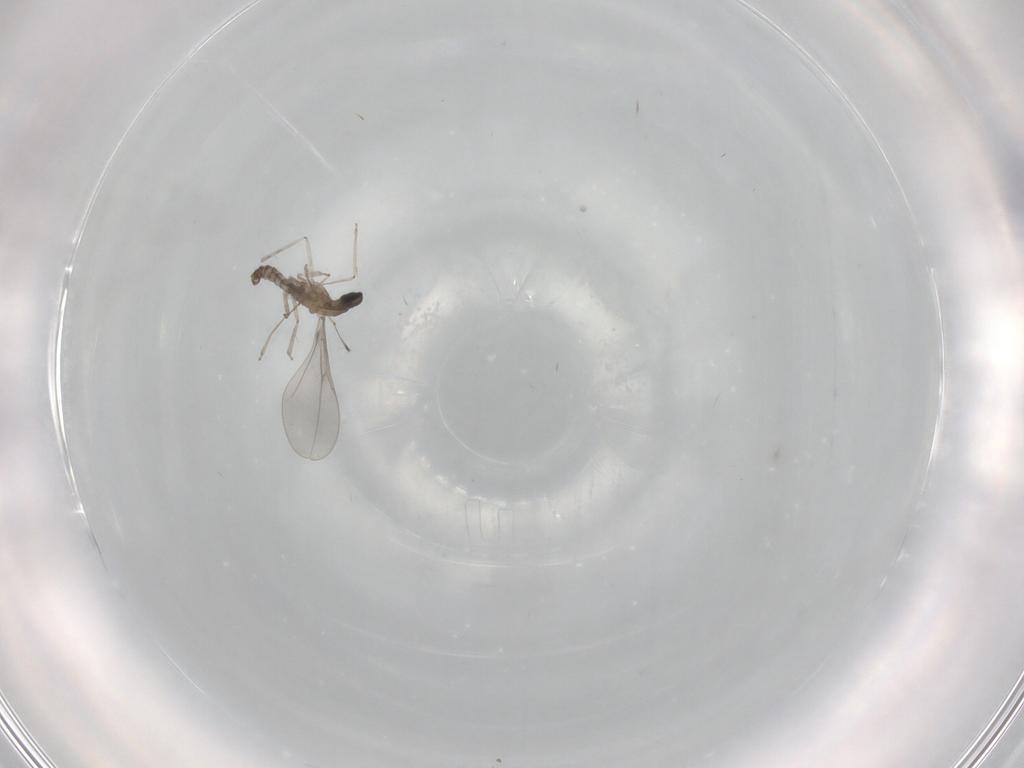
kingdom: Animalia
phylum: Arthropoda
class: Insecta
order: Diptera
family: Cecidomyiidae
